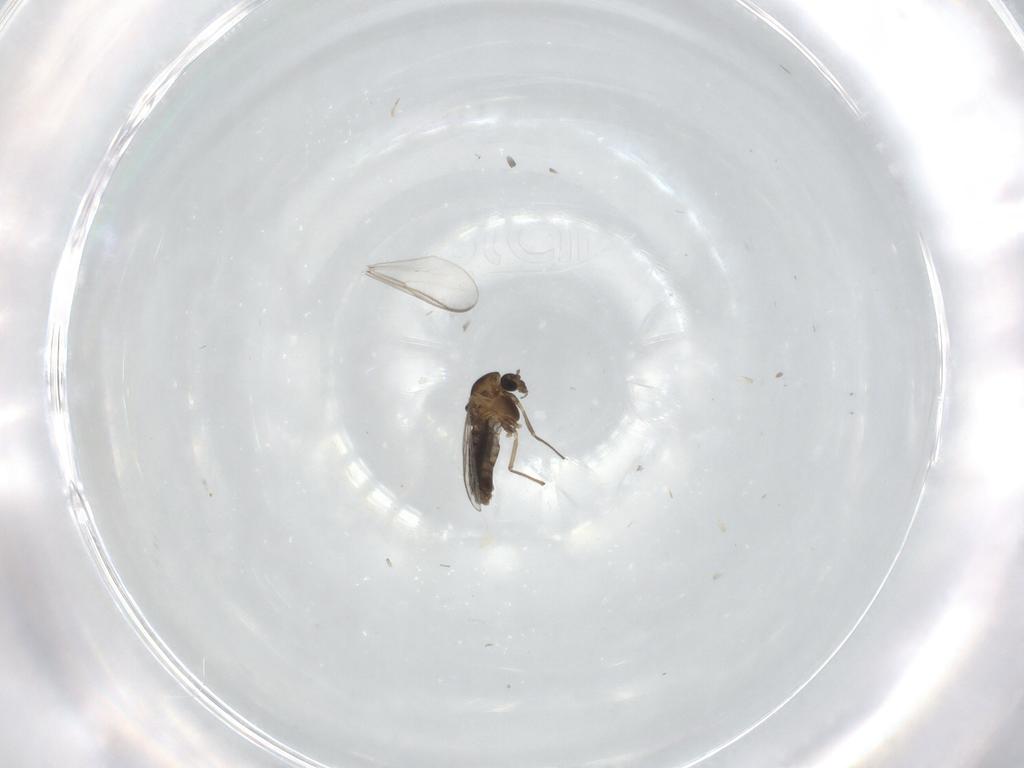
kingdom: Animalia
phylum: Arthropoda
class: Insecta
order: Diptera
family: Chironomidae
